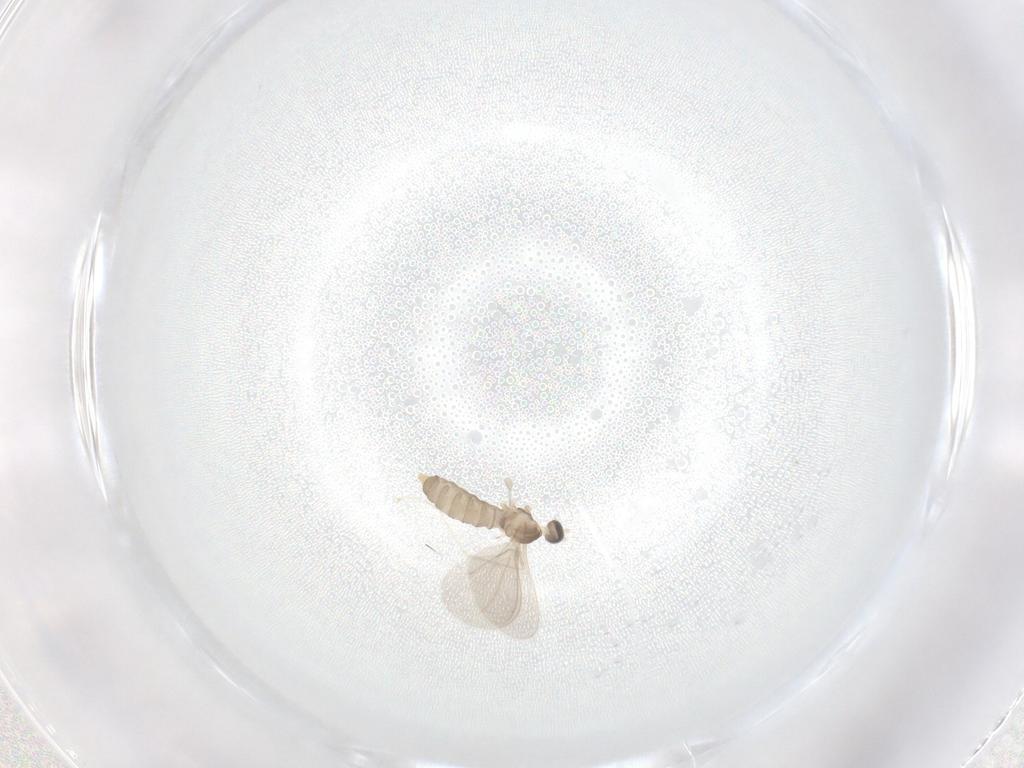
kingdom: Animalia
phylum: Arthropoda
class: Insecta
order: Diptera
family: Cecidomyiidae
